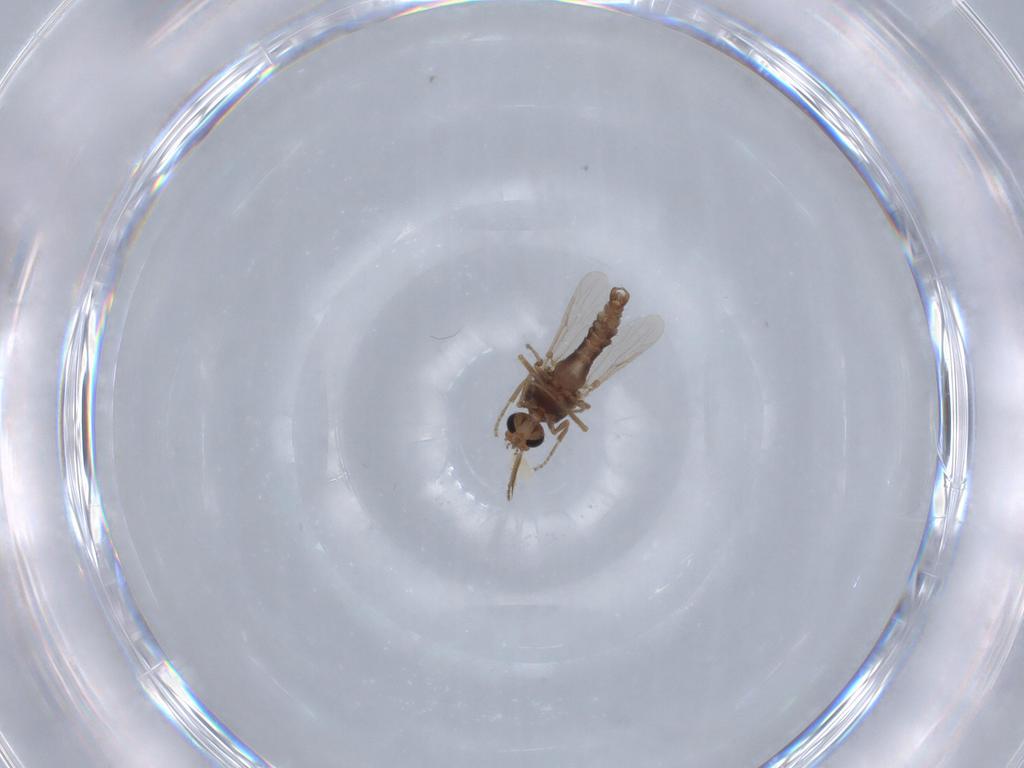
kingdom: Animalia
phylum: Arthropoda
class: Insecta
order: Diptera
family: Ceratopogonidae
